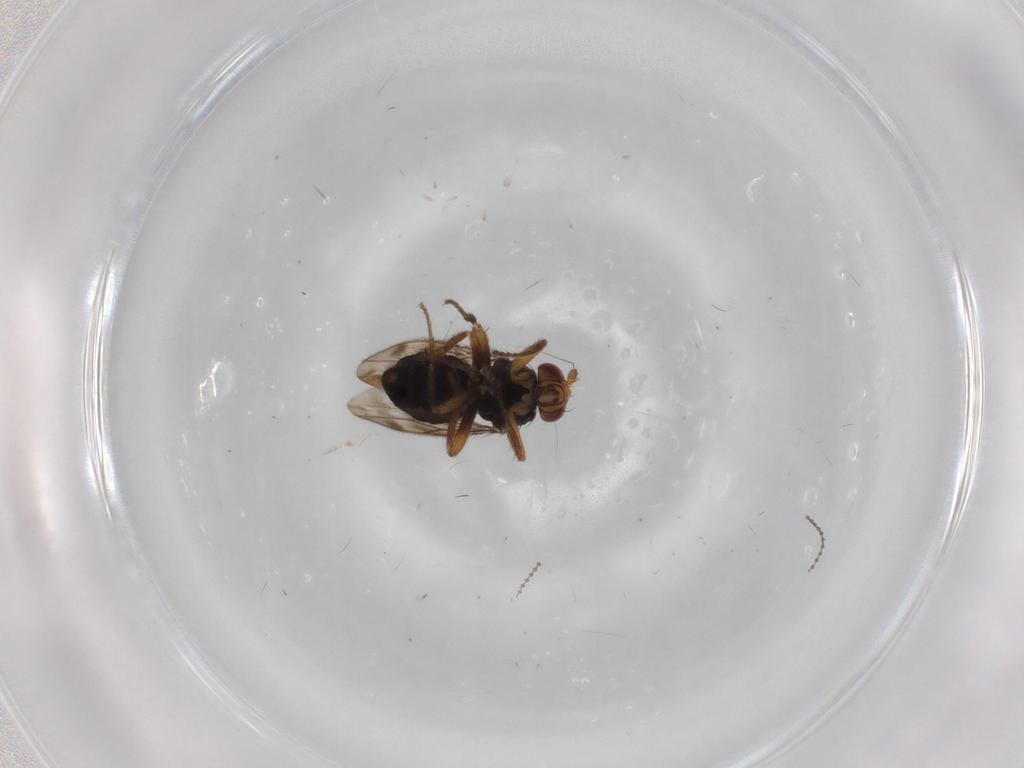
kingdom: Animalia
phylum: Arthropoda
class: Insecta
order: Diptera
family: Sphaeroceridae
